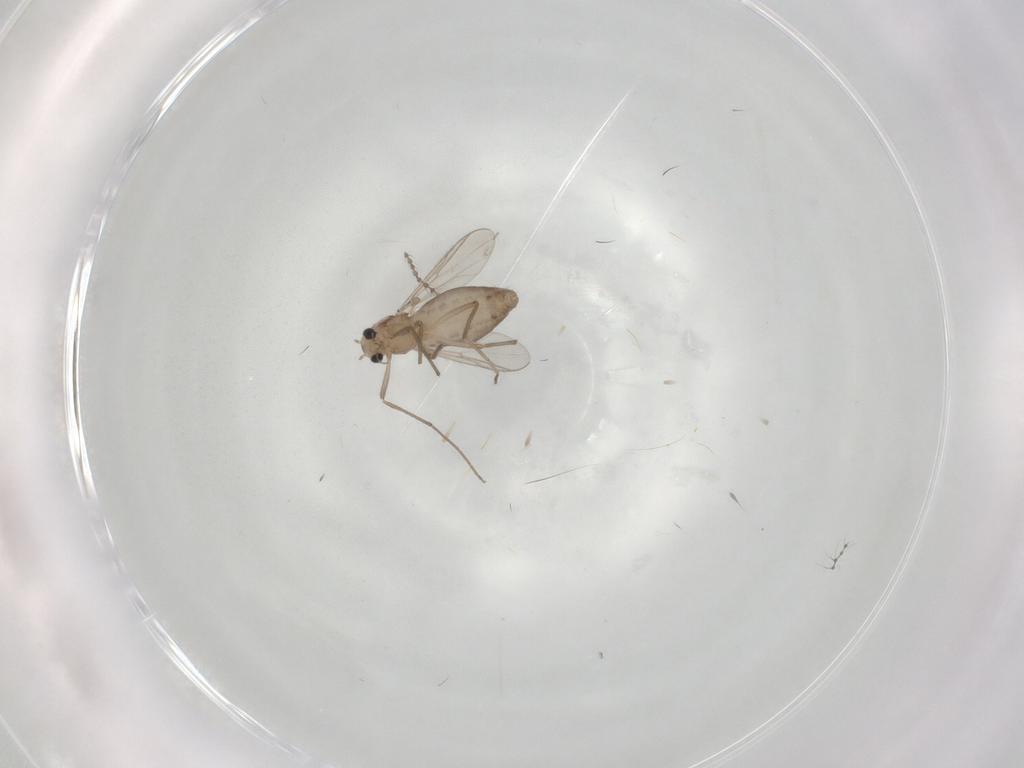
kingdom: Animalia
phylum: Arthropoda
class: Insecta
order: Diptera
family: Chironomidae
